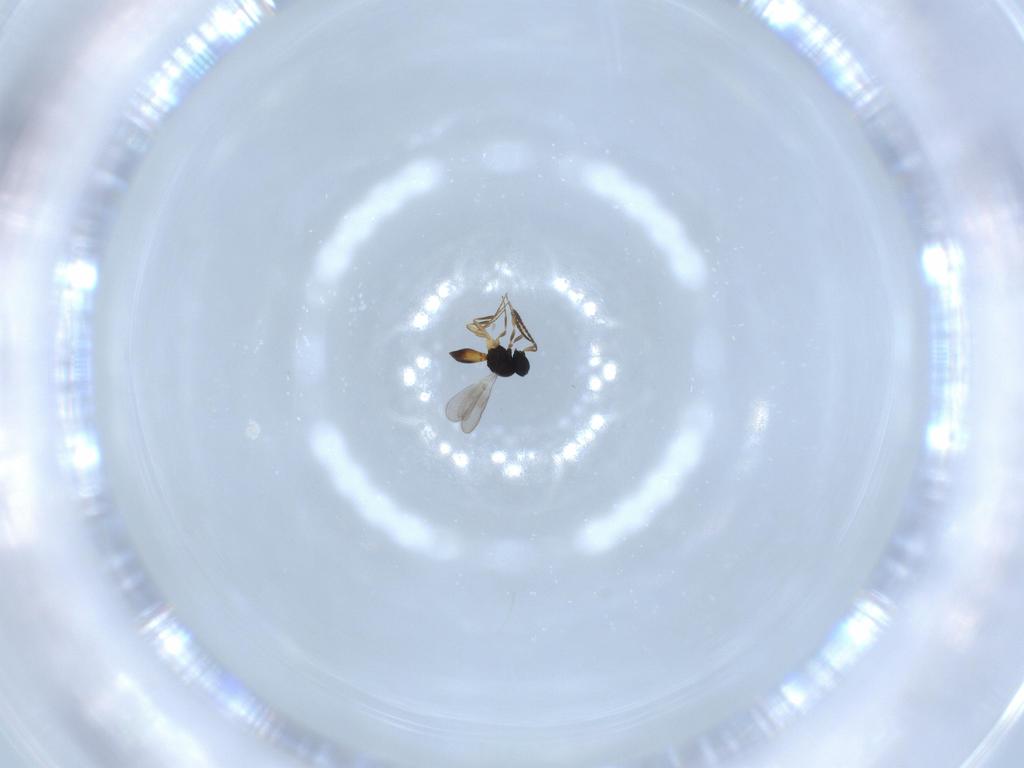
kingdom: Animalia
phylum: Arthropoda
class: Insecta
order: Hymenoptera
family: Scelionidae
